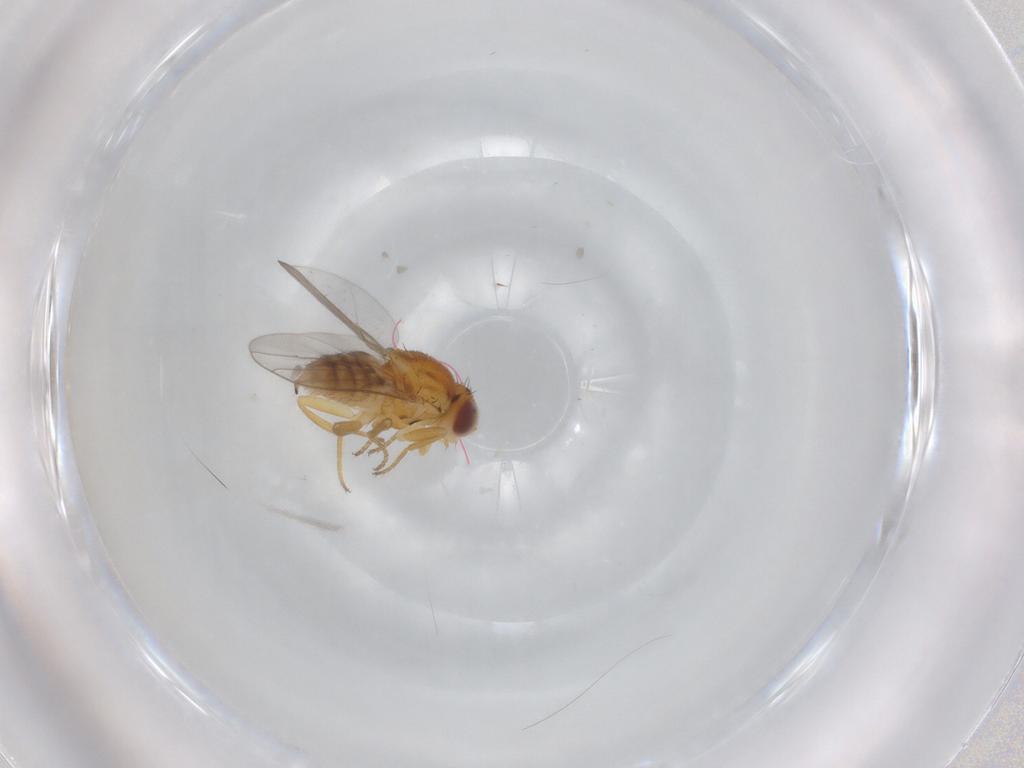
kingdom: Animalia
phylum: Arthropoda
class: Insecta
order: Diptera
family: Chloropidae
